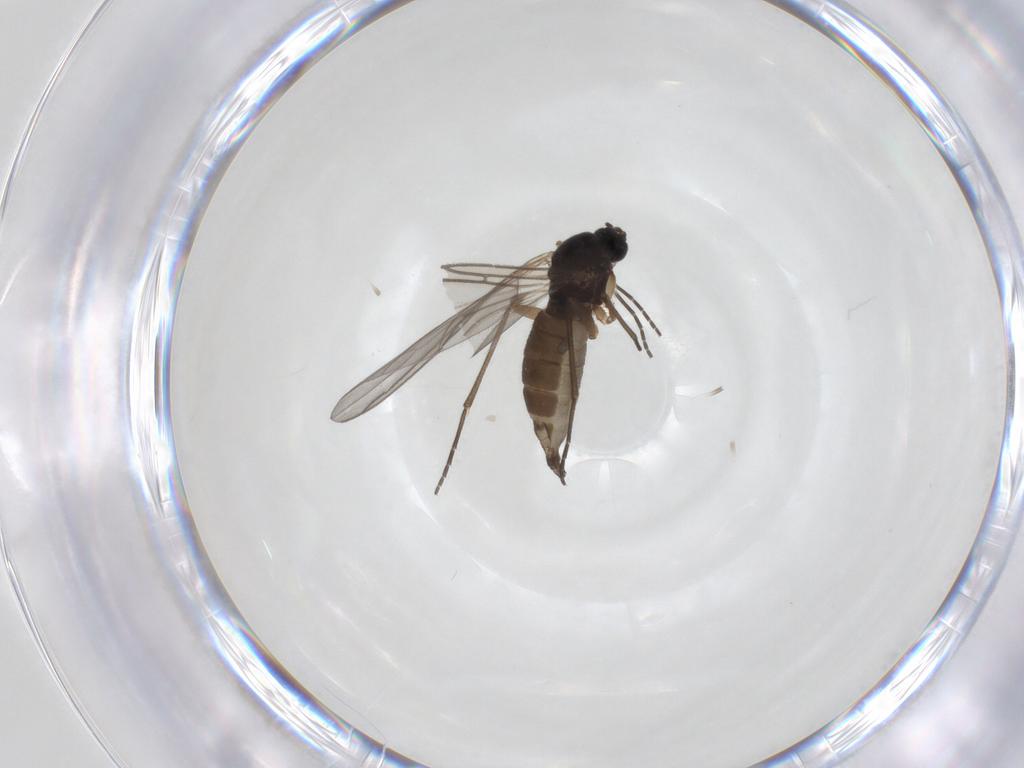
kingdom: Animalia
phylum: Arthropoda
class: Insecta
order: Diptera
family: Sciaridae
